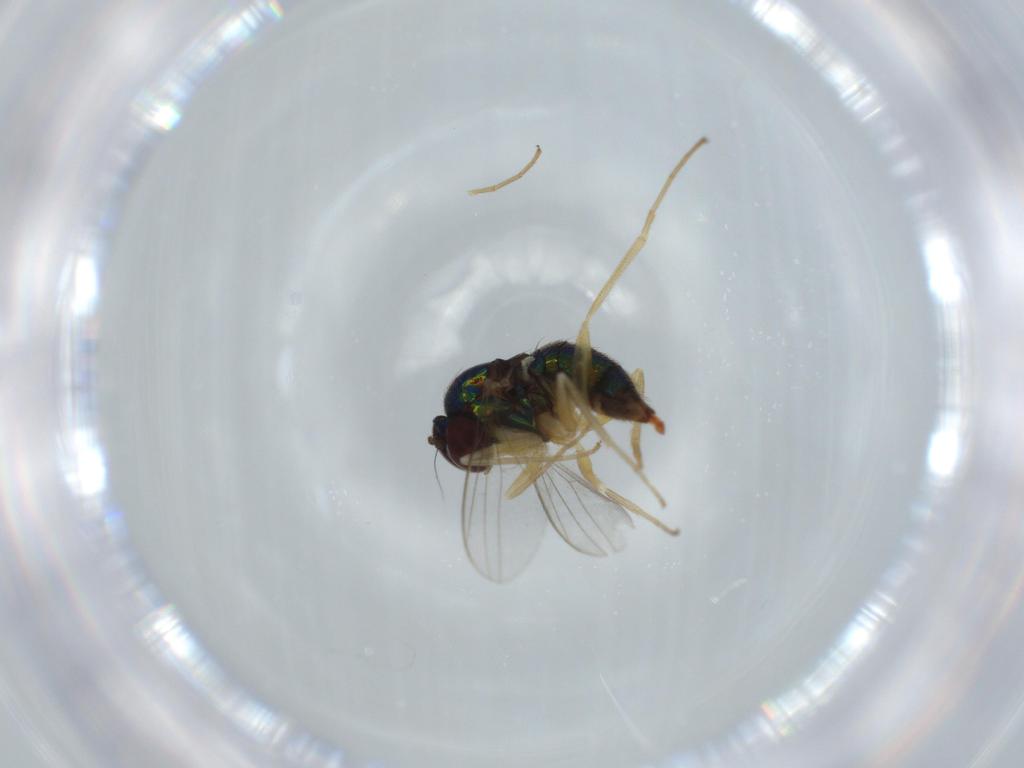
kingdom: Animalia
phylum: Arthropoda
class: Insecta
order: Diptera
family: Dolichopodidae
